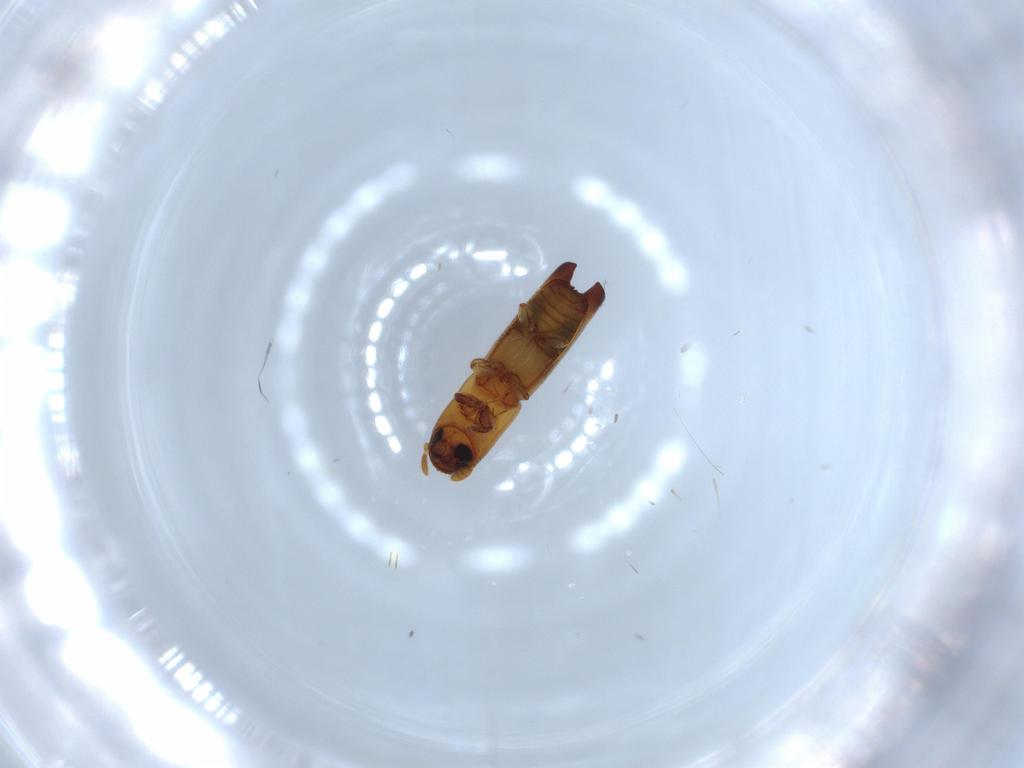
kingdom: Animalia
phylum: Arthropoda
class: Insecta
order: Coleoptera
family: Curculionidae
